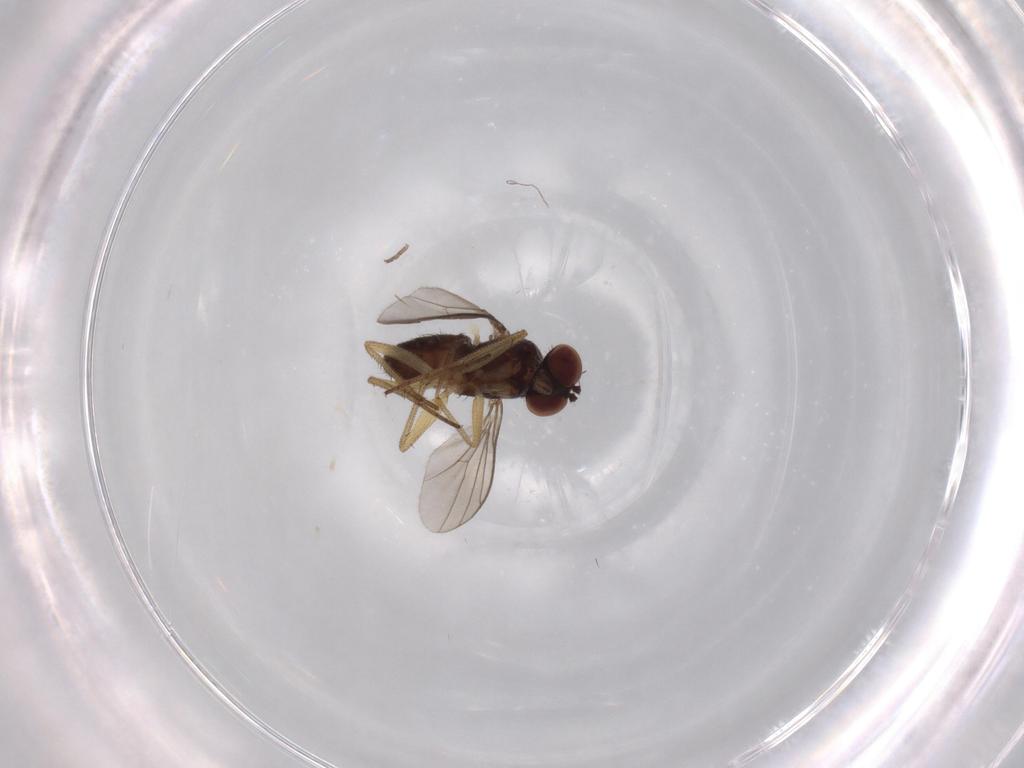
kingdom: Animalia
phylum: Arthropoda
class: Insecta
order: Diptera
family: Dolichopodidae
